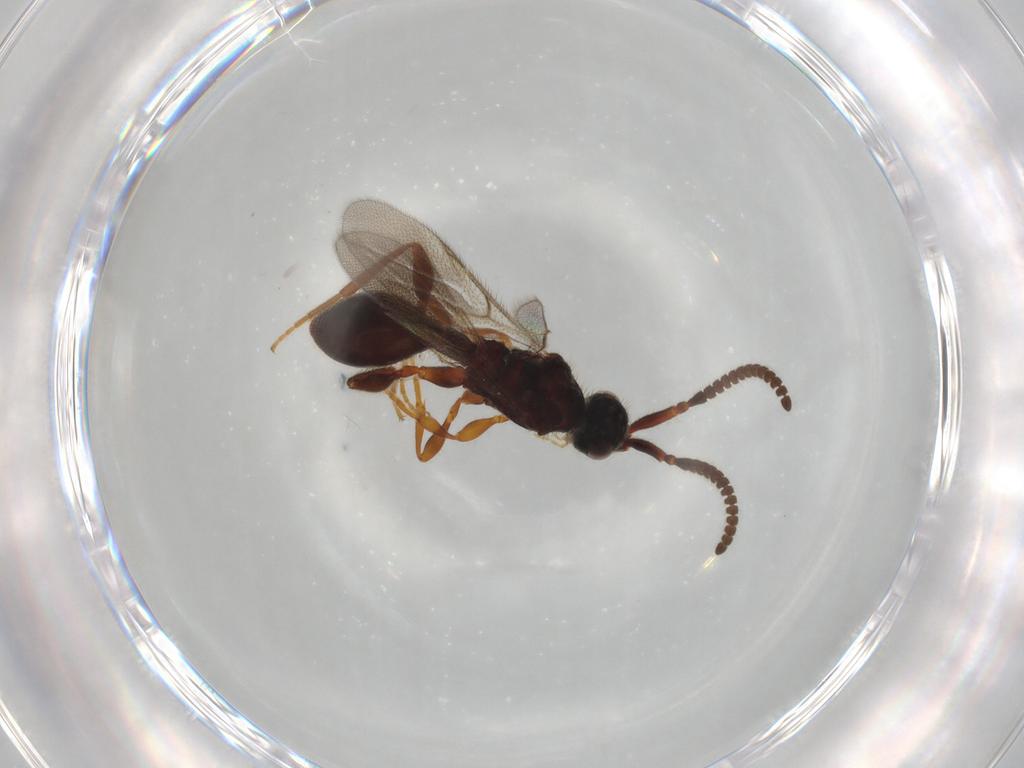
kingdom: Animalia
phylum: Arthropoda
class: Insecta
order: Hymenoptera
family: Diapriidae
